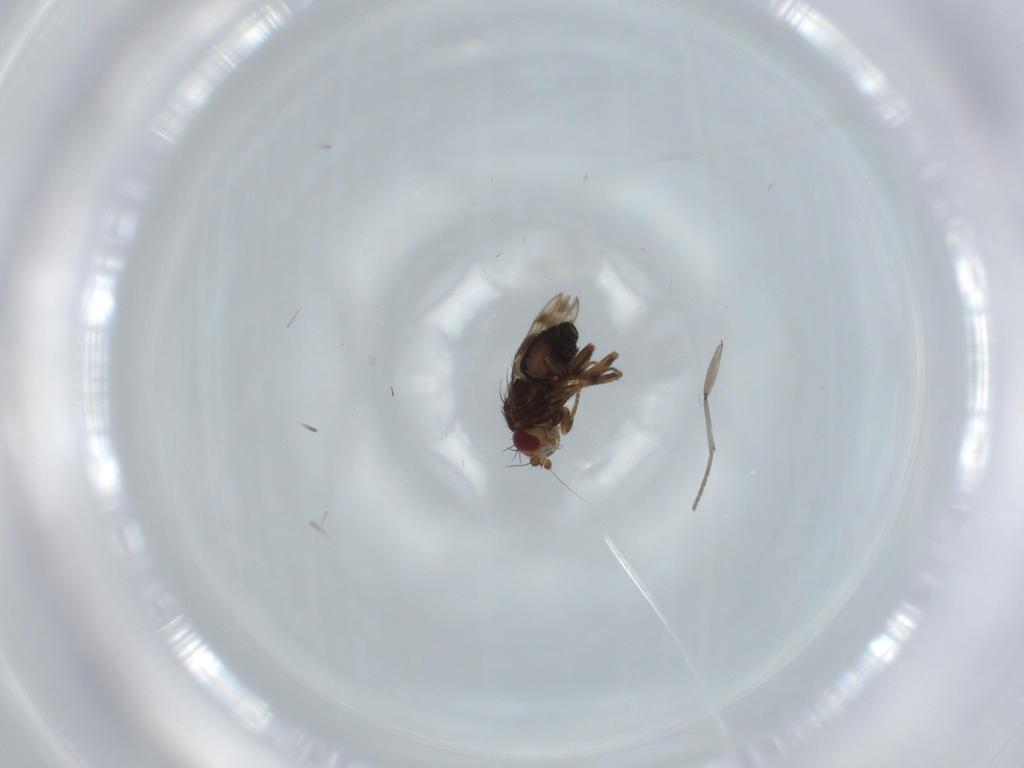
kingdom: Animalia
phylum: Arthropoda
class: Insecta
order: Diptera
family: Sphaeroceridae
